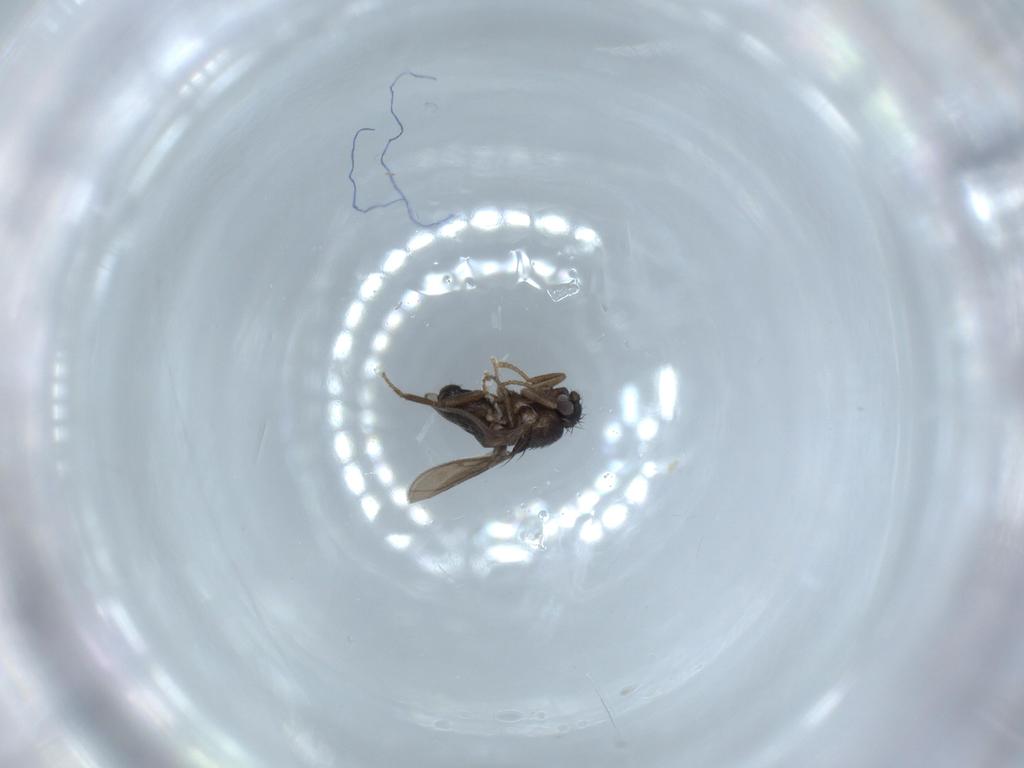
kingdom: Animalia
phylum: Arthropoda
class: Insecta
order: Diptera
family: Sphaeroceridae
